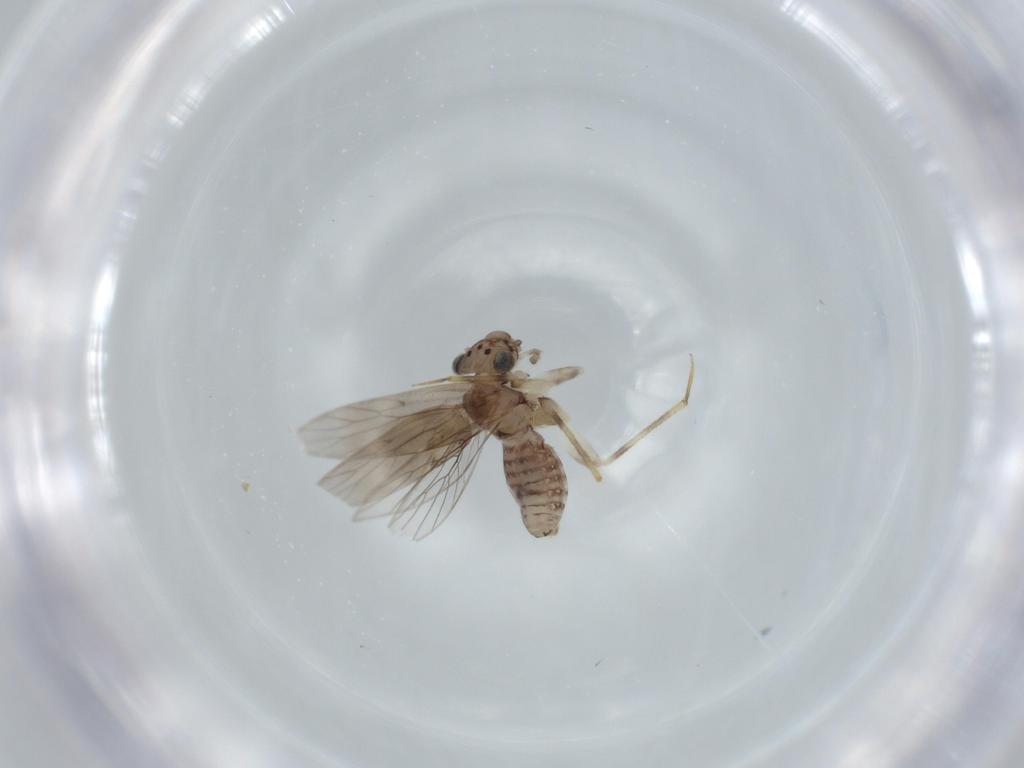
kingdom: Animalia
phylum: Arthropoda
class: Insecta
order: Psocodea
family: Lepidopsocidae
